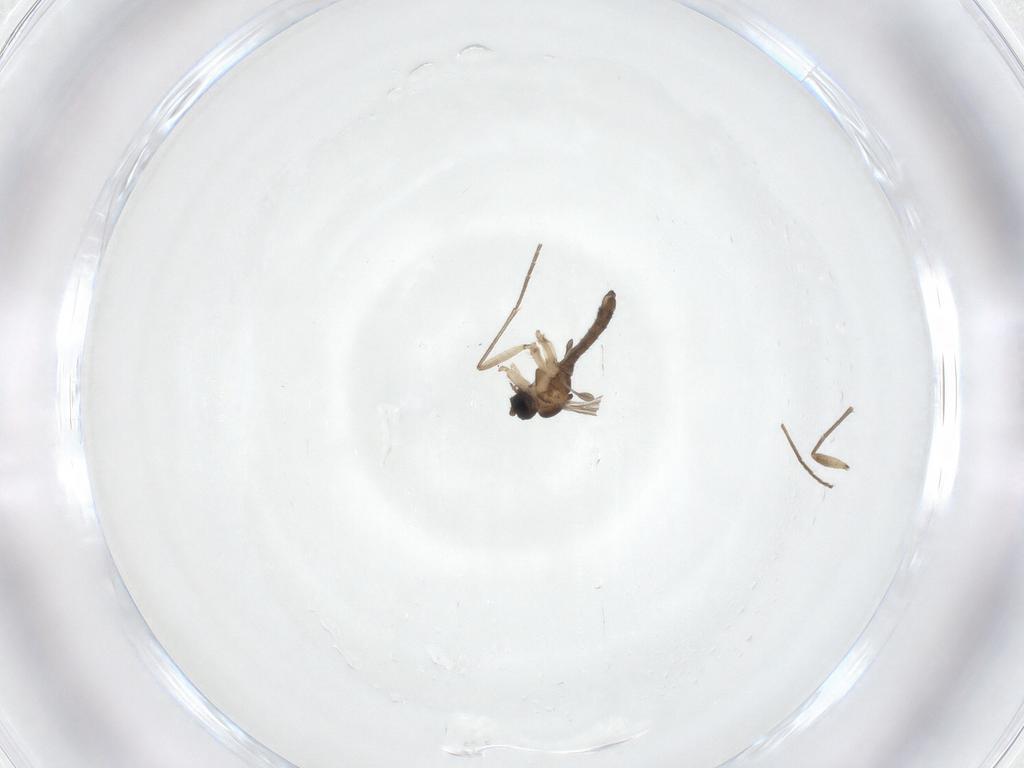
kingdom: Animalia
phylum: Arthropoda
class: Insecta
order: Diptera
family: Sciaridae
